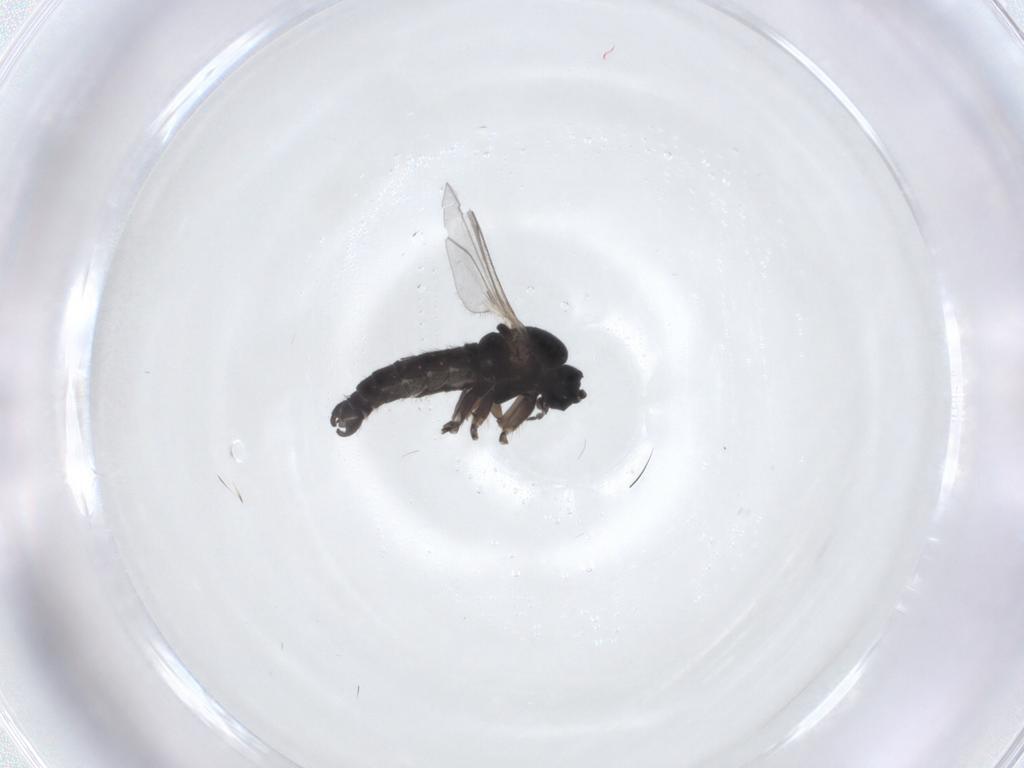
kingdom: Animalia
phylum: Arthropoda
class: Insecta
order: Diptera
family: Sciaridae
